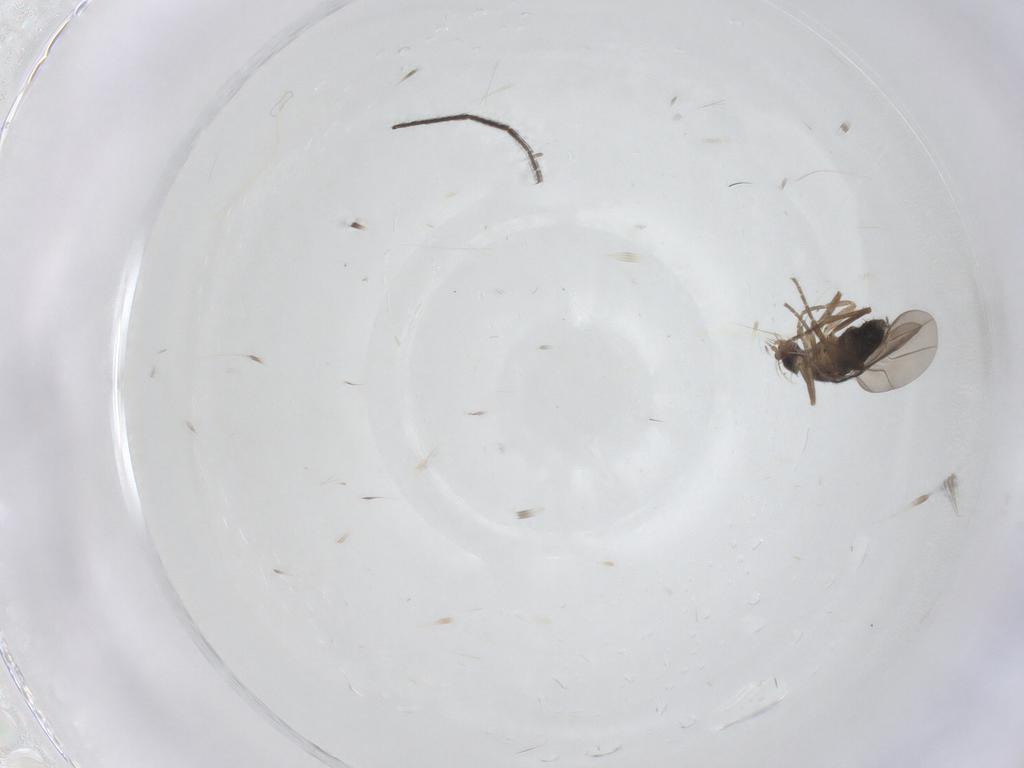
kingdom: Animalia
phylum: Arthropoda
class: Insecta
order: Diptera
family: Phoridae
